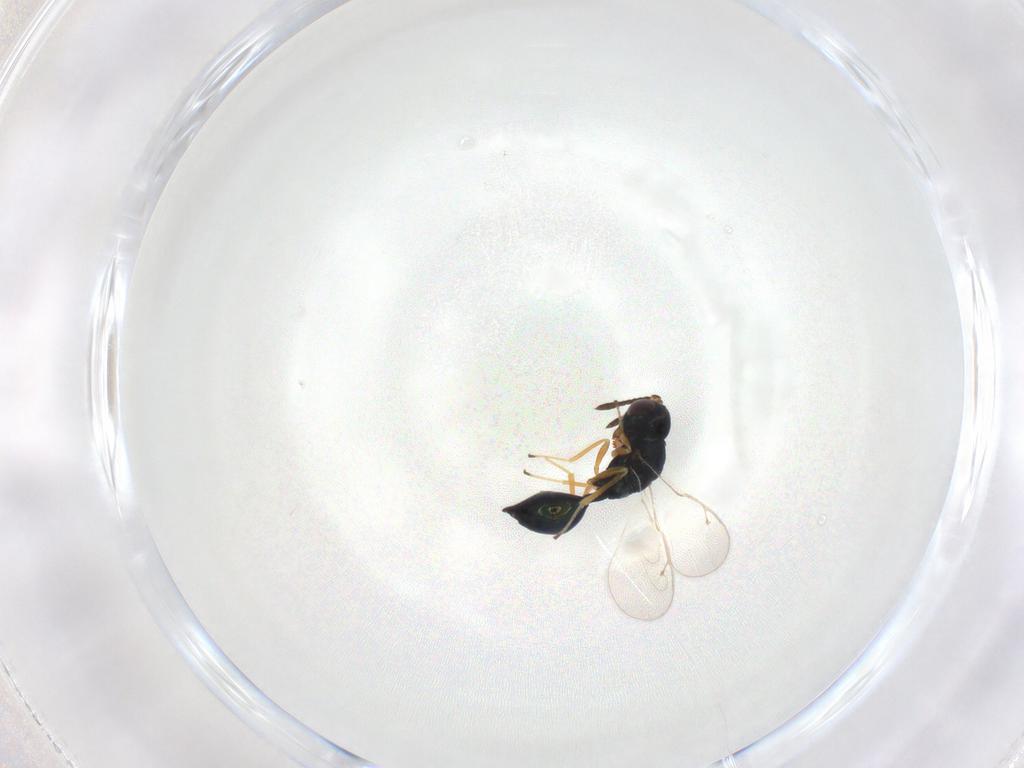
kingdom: Animalia
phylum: Arthropoda
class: Insecta
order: Hymenoptera
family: Pteromalidae
